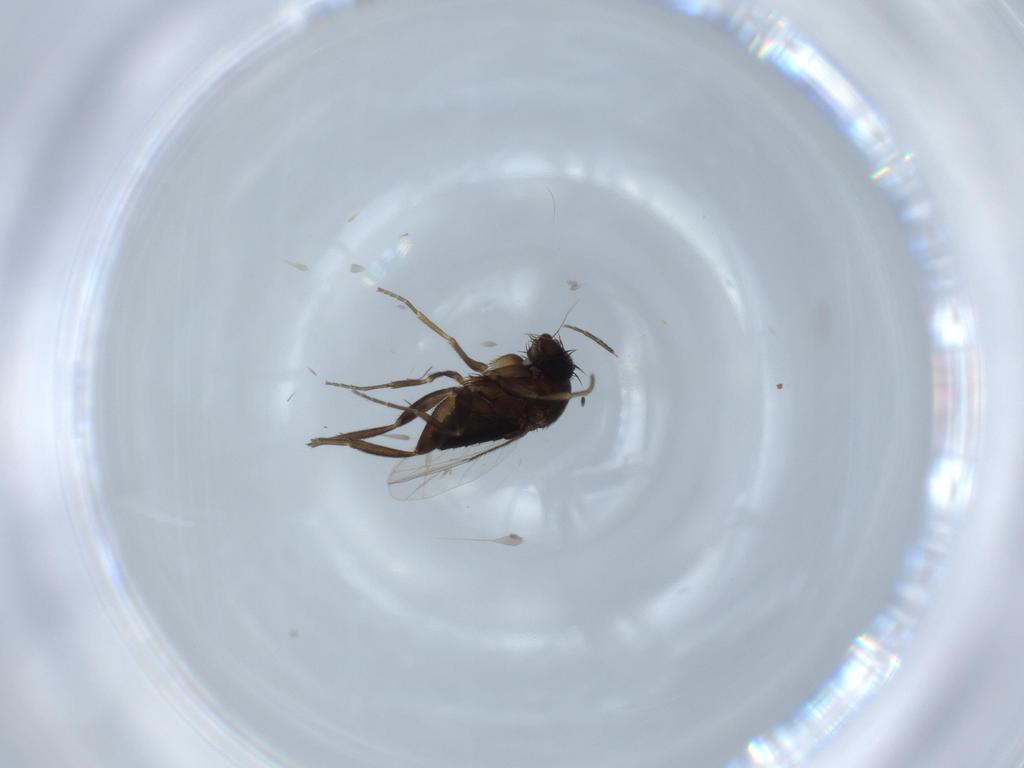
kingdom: Animalia
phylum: Arthropoda
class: Insecta
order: Diptera
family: Phoridae
